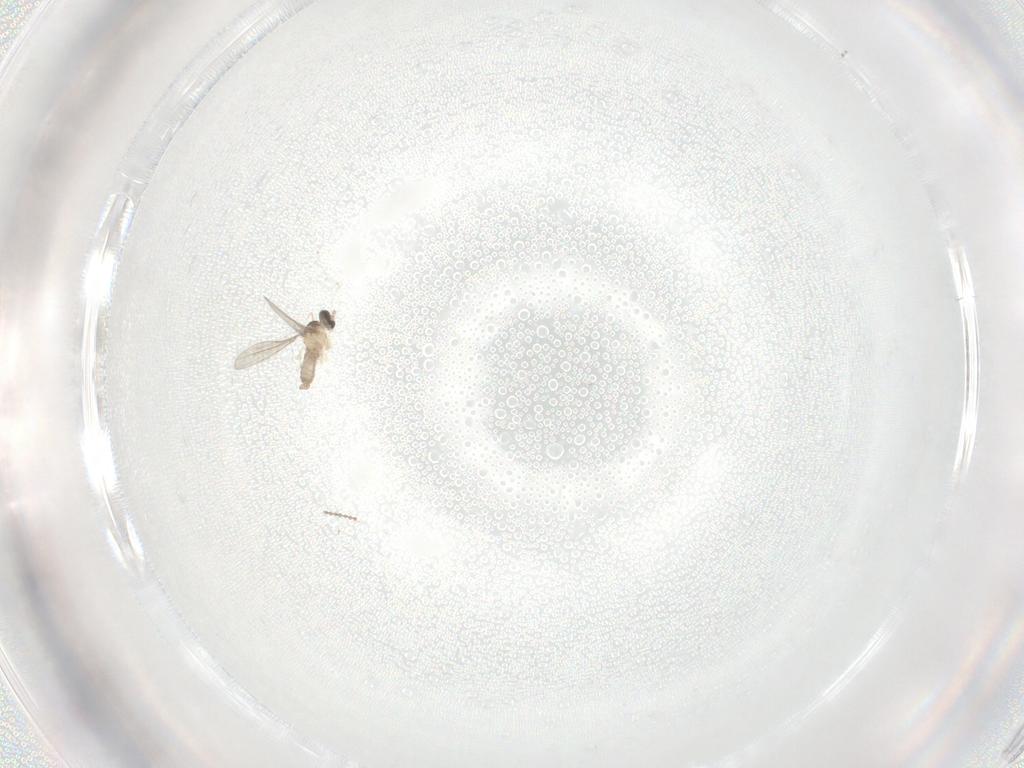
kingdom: Animalia
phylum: Arthropoda
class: Insecta
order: Diptera
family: Cecidomyiidae
